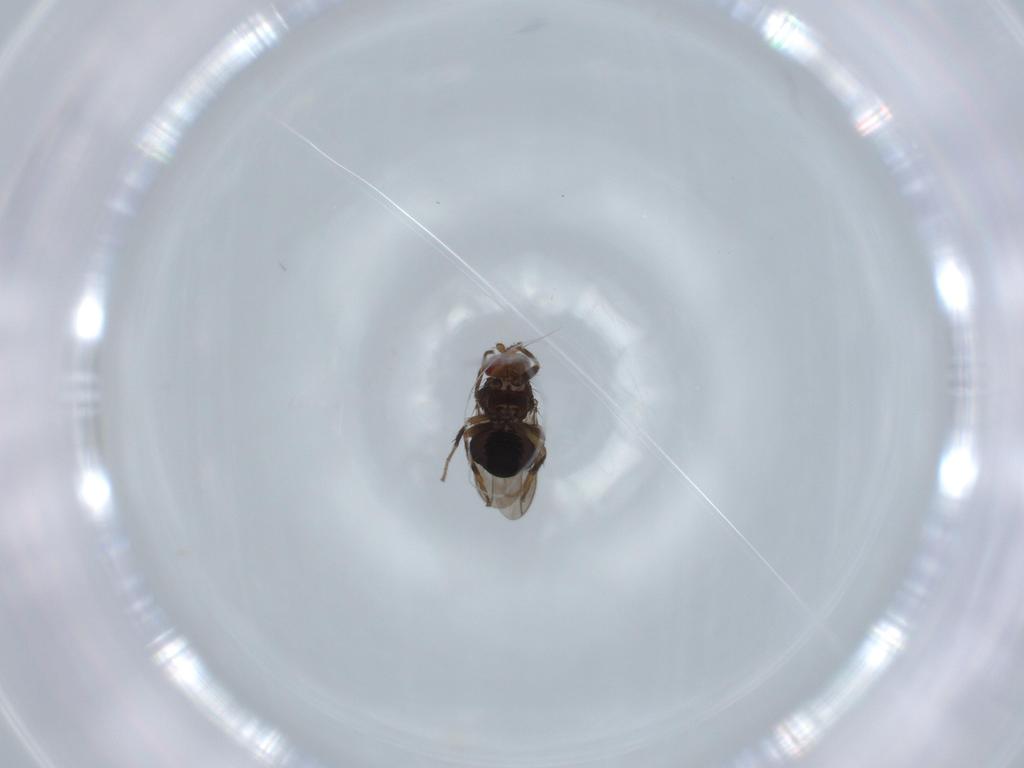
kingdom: Animalia
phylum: Arthropoda
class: Insecta
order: Diptera
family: Sphaeroceridae
